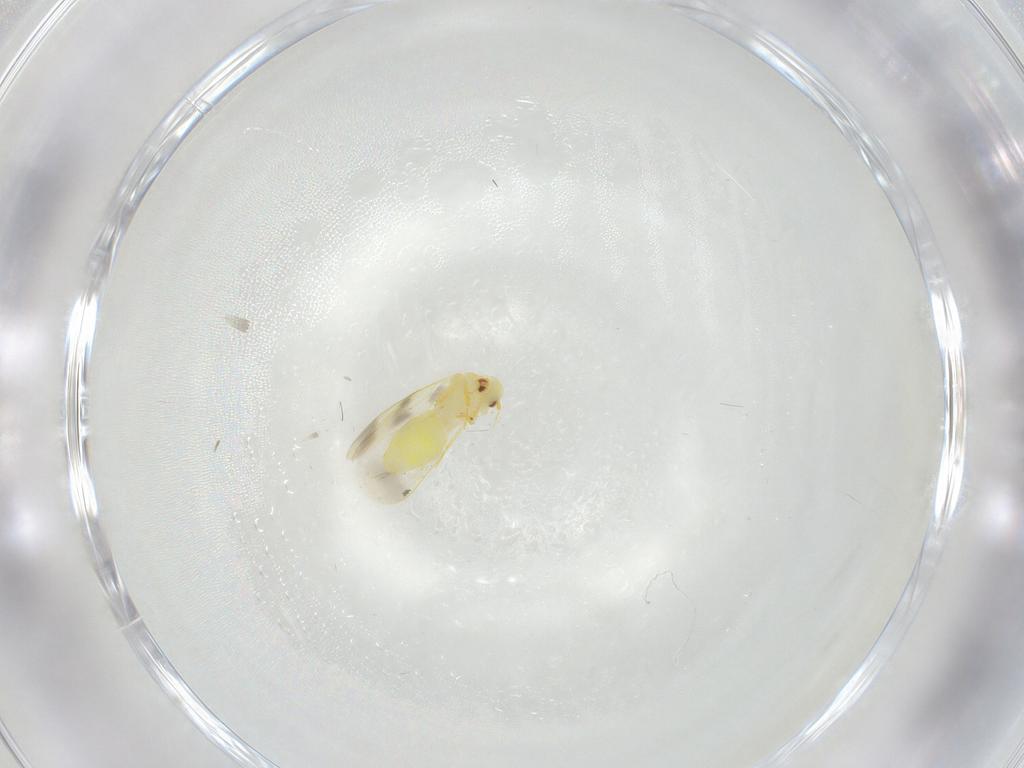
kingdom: Animalia
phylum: Arthropoda
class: Insecta
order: Hemiptera
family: Aleyrodidae
